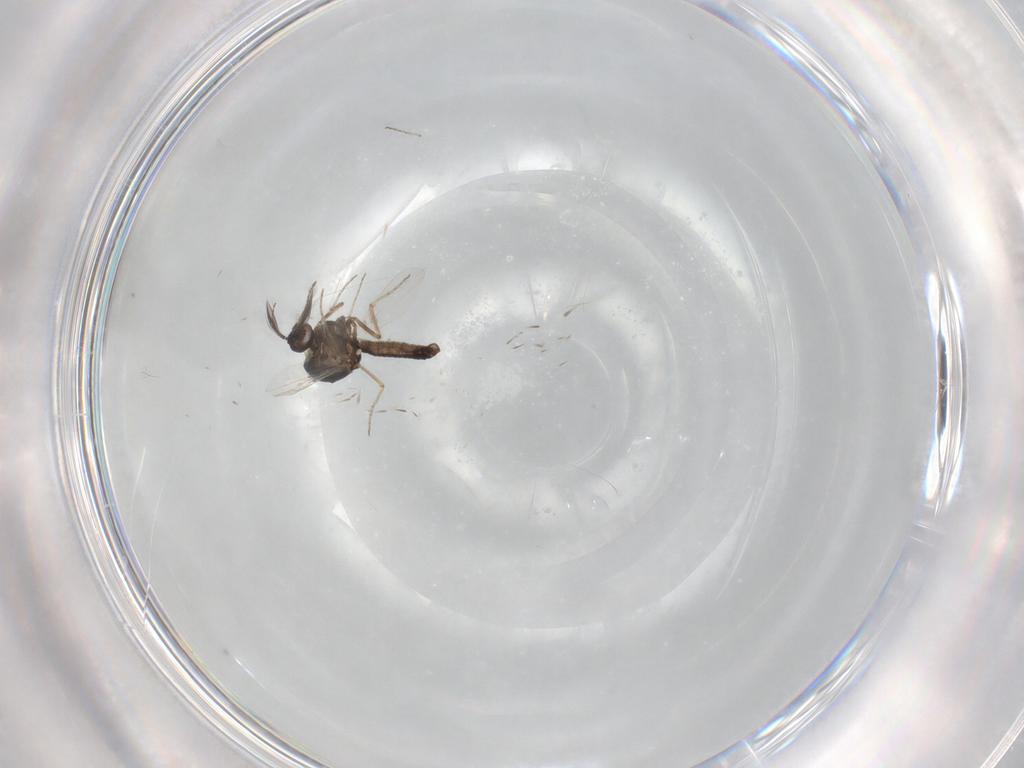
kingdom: Animalia
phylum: Arthropoda
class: Insecta
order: Diptera
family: Ceratopogonidae
